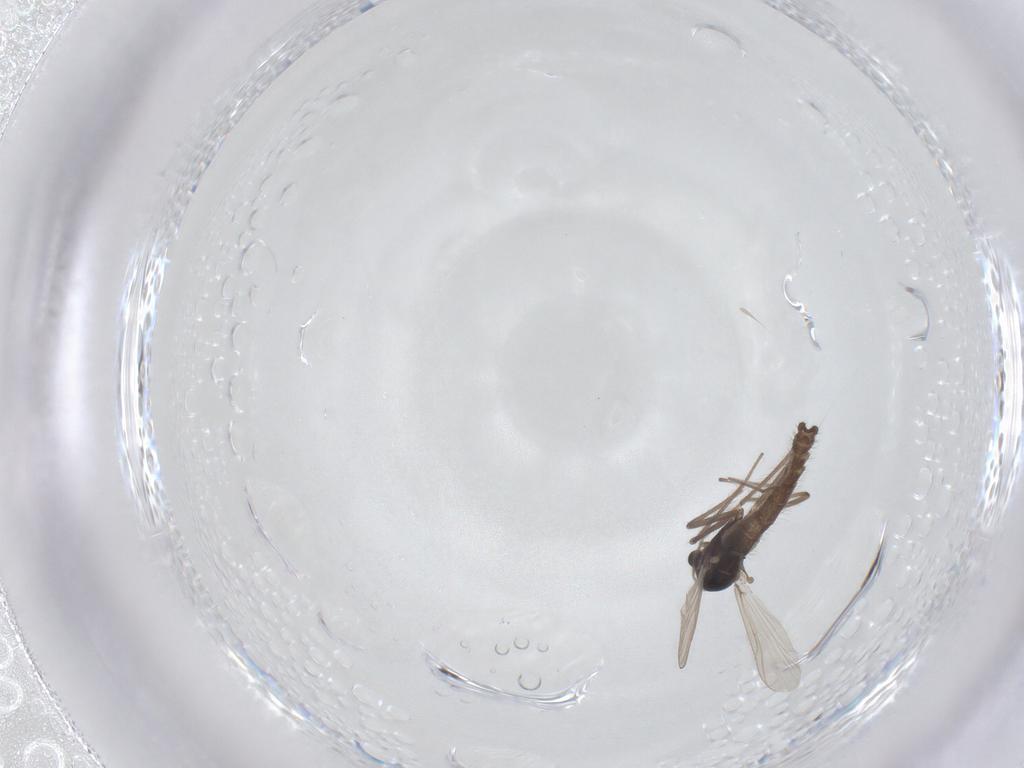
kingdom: Animalia
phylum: Arthropoda
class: Insecta
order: Diptera
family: Chironomidae
